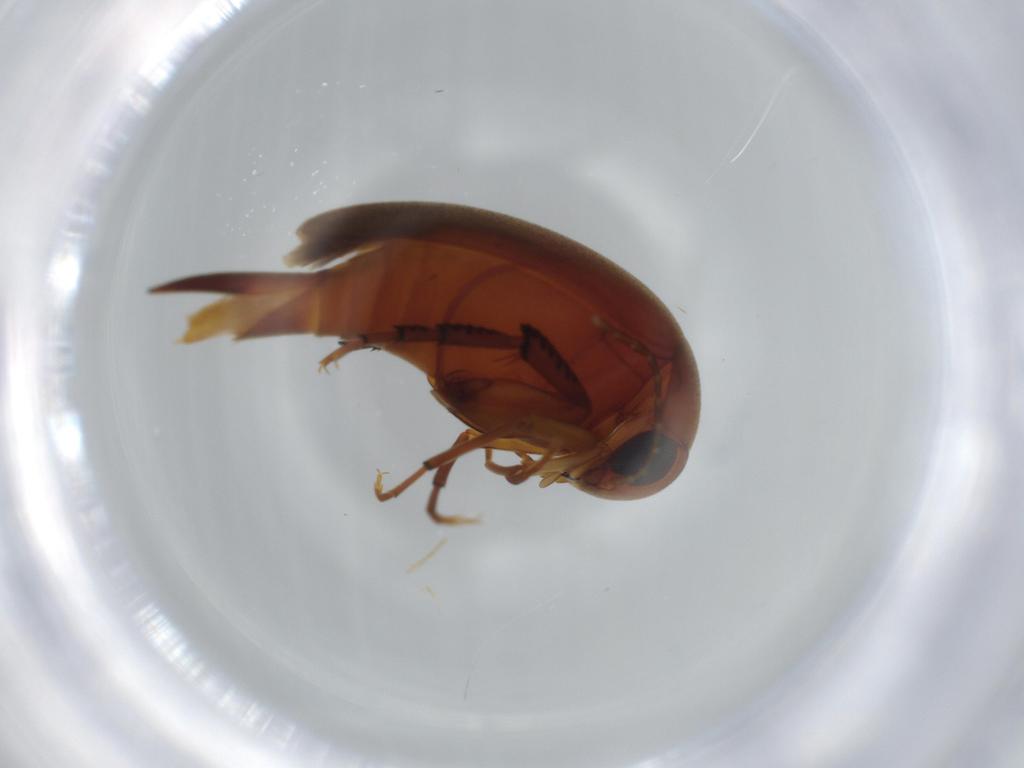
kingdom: Animalia
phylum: Arthropoda
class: Insecta
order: Coleoptera
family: Mordellidae
